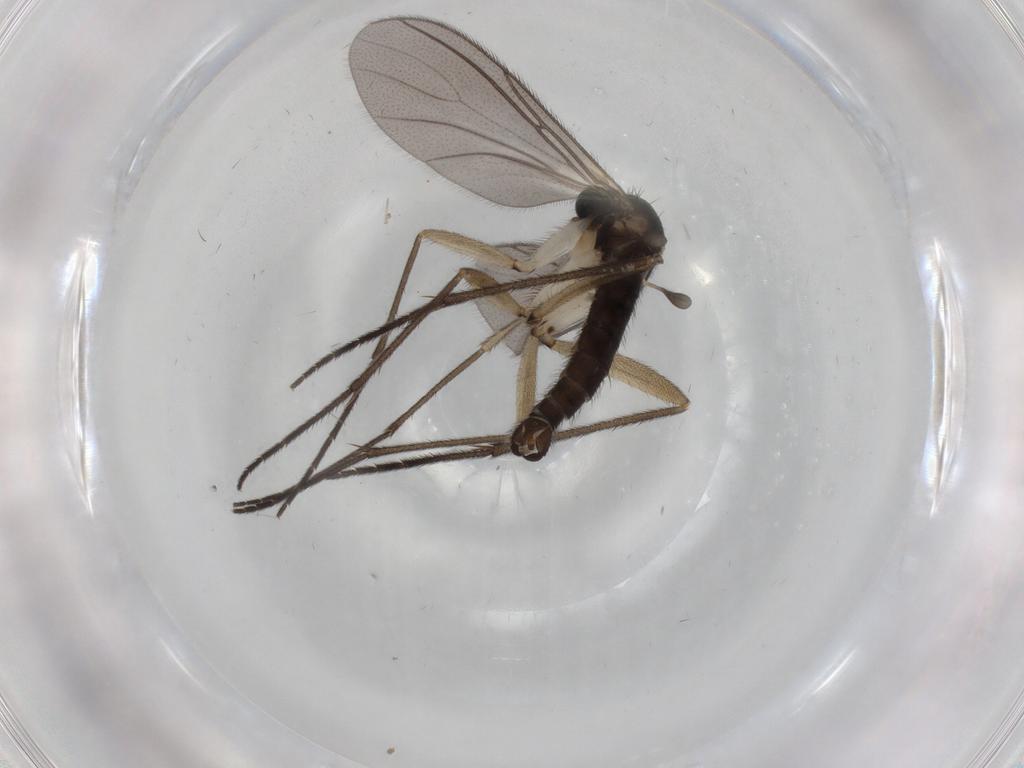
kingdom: Animalia
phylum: Arthropoda
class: Insecta
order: Diptera
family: Sciaridae
